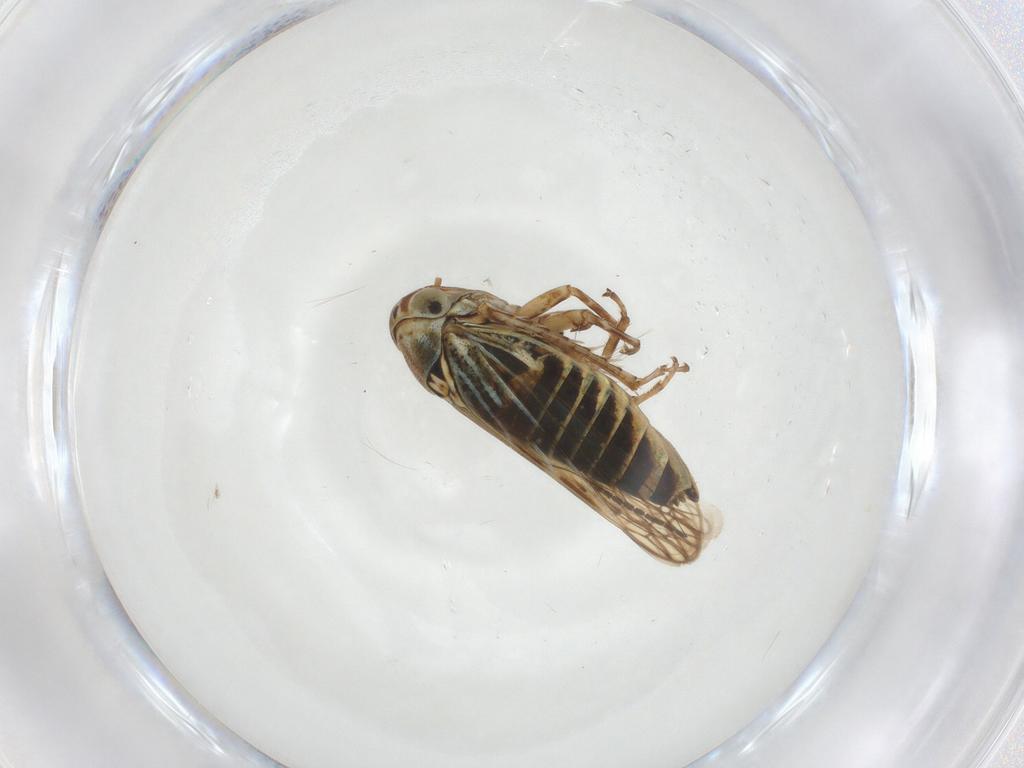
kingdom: Animalia
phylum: Arthropoda
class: Insecta
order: Hemiptera
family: Cicadellidae
